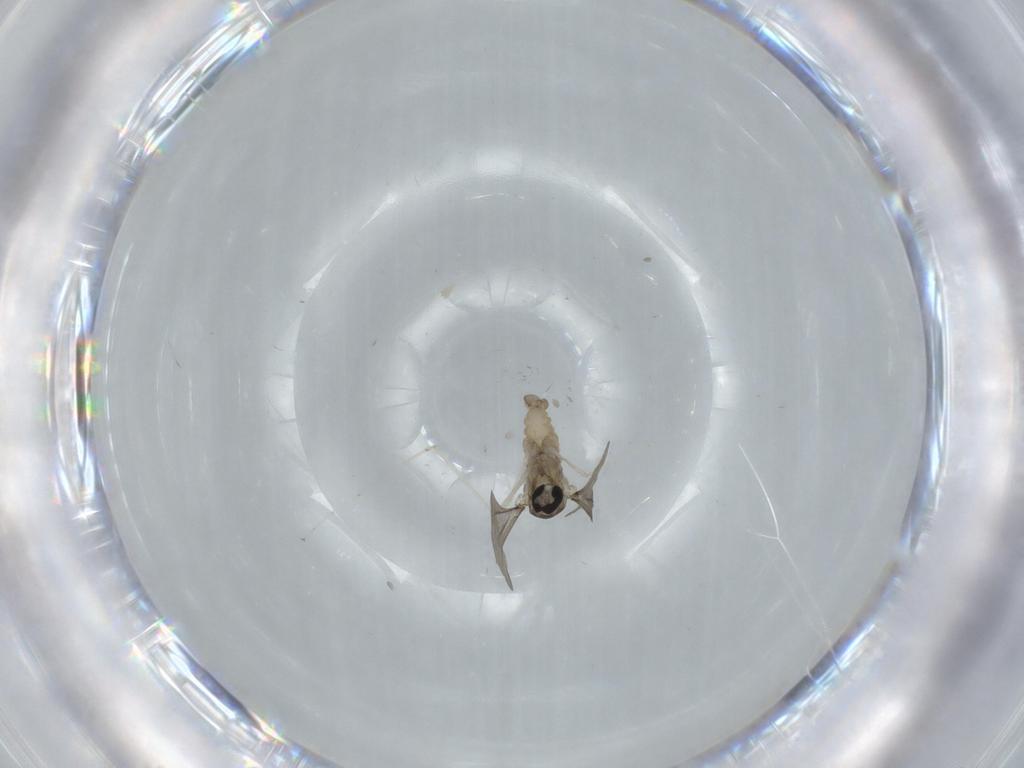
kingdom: Animalia
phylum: Arthropoda
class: Insecta
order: Diptera
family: Cecidomyiidae
